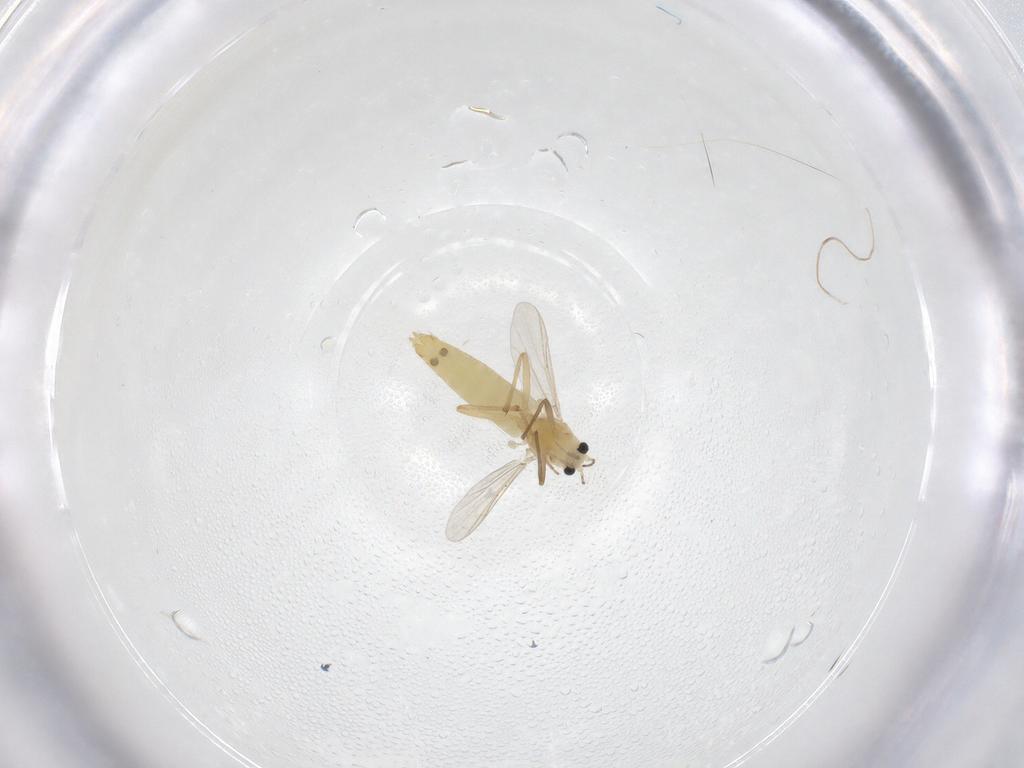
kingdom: Animalia
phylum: Arthropoda
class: Insecta
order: Diptera
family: Chironomidae
